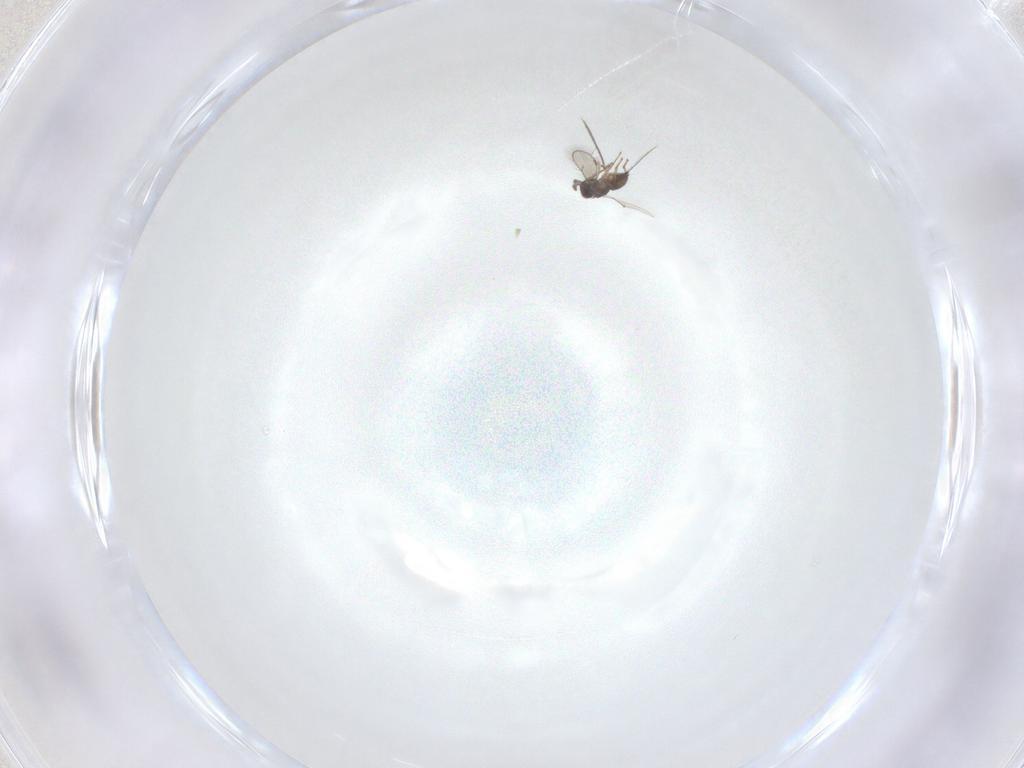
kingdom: Animalia
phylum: Arthropoda
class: Insecta
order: Hymenoptera
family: Eulophidae
